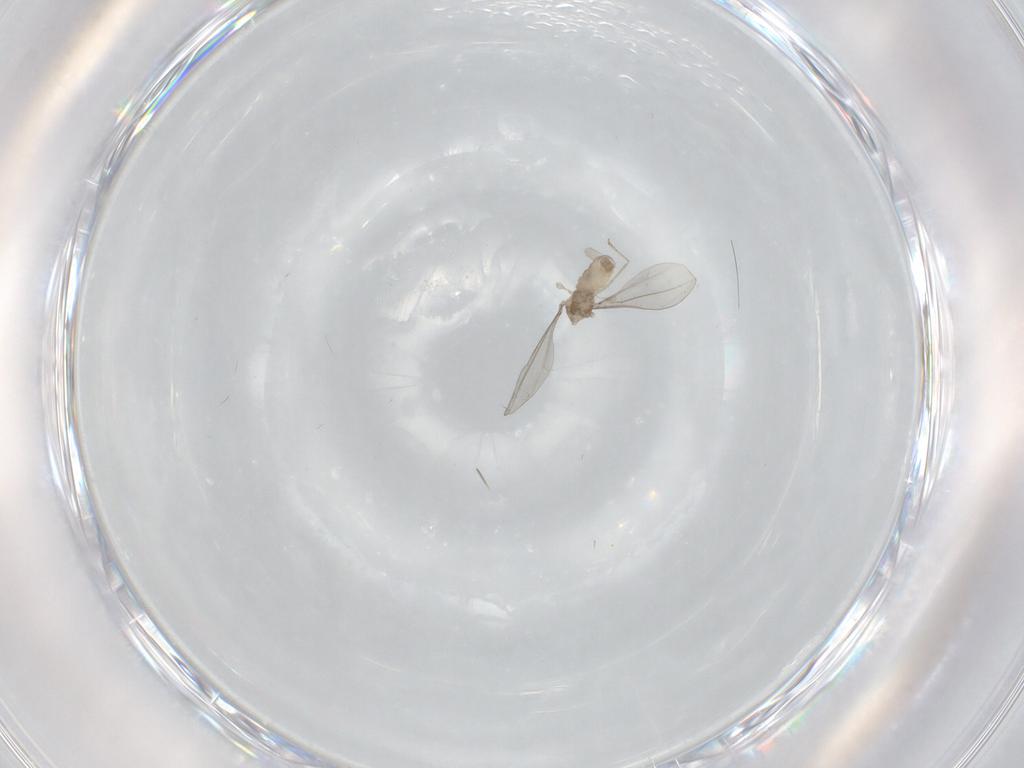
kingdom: Animalia
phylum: Arthropoda
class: Insecta
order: Diptera
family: Cecidomyiidae
